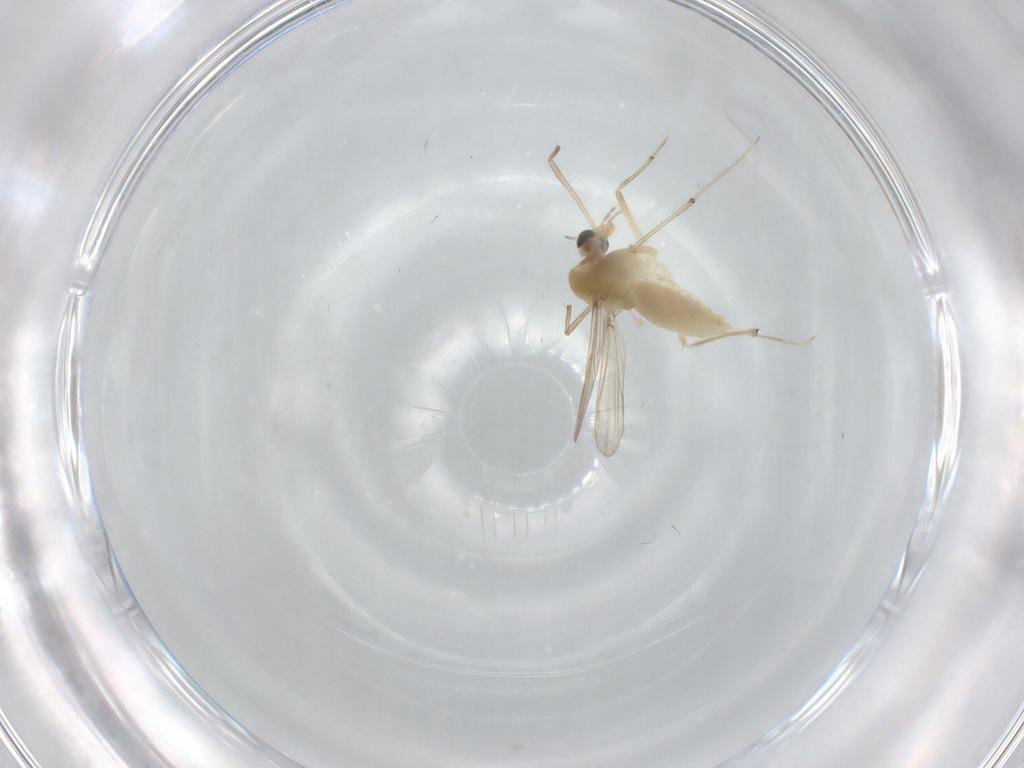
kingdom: Animalia
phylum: Arthropoda
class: Insecta
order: Diptera
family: Chironomidae
